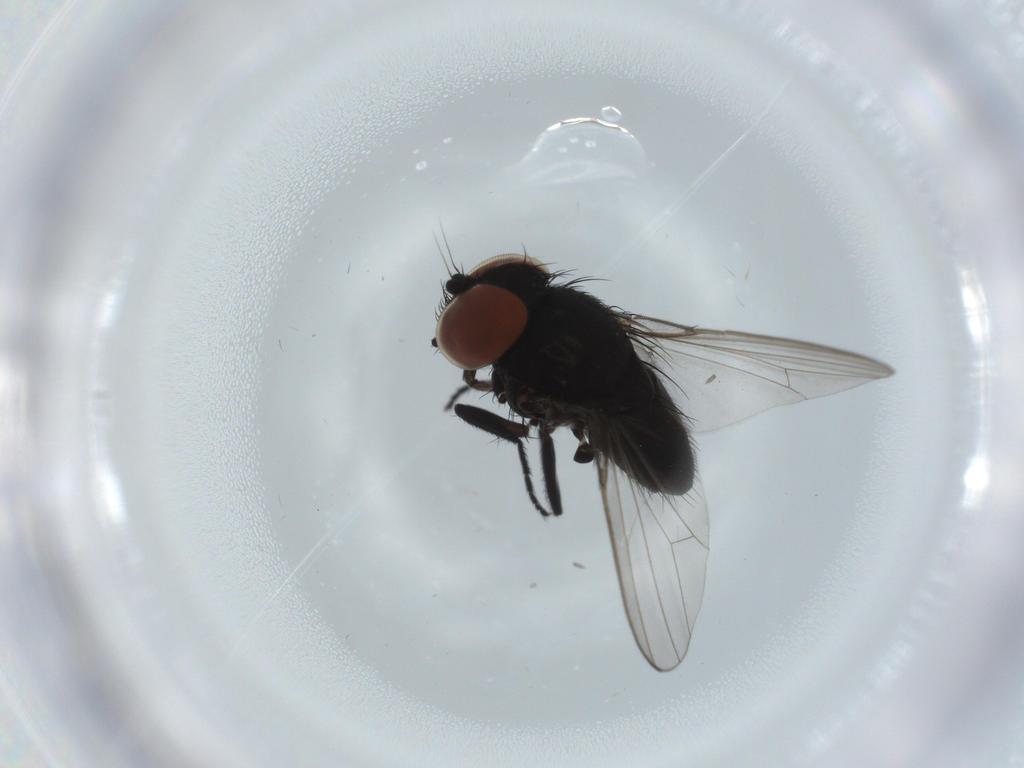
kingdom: Animalia
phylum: Arthropoda
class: Insecta
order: Diptera
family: Milichiidae
